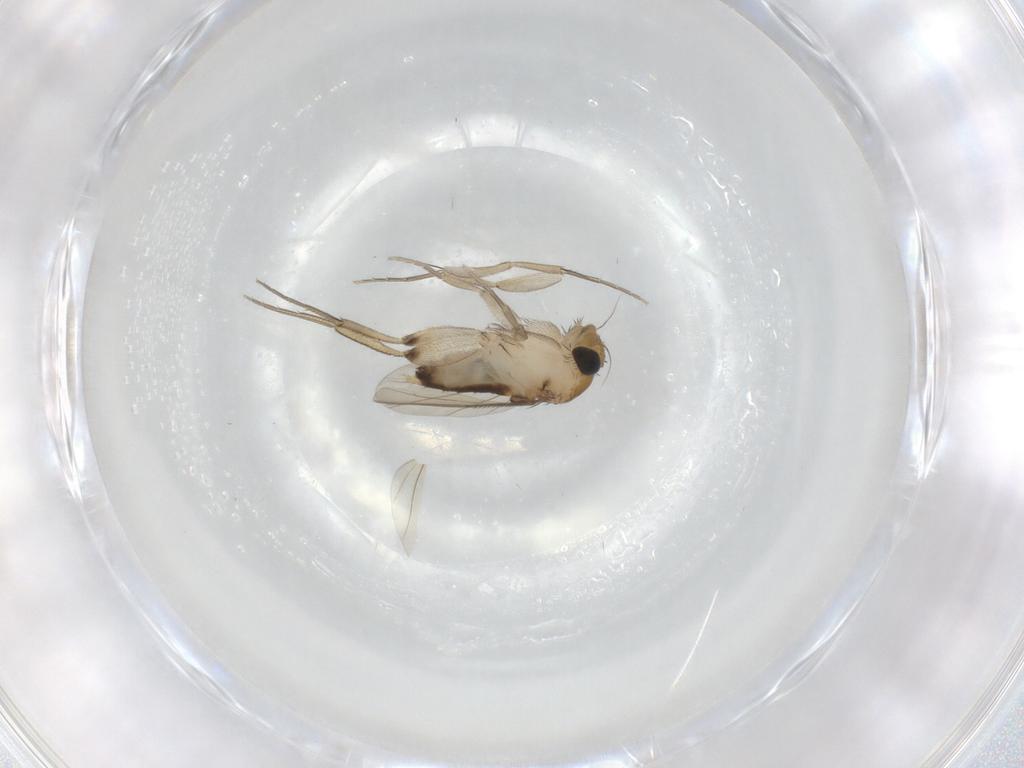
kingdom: Animalia
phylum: Arthropoda
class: Insecta
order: Diptera
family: Phoridae
